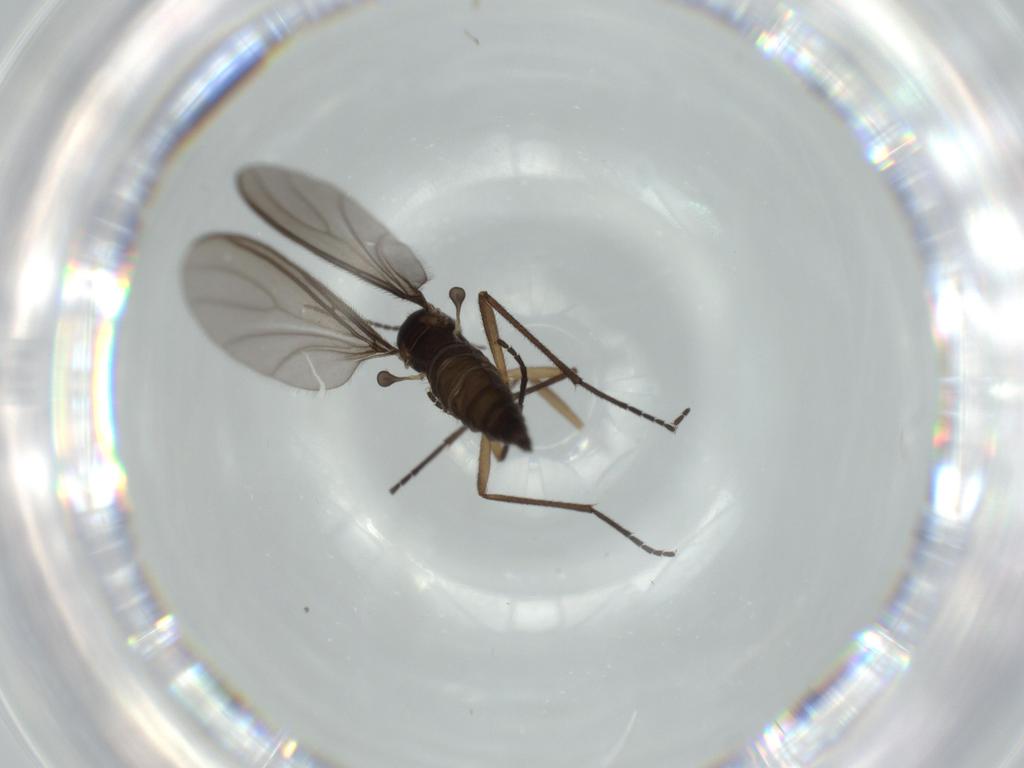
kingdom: Animalia
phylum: Arthropoda
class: Insecta
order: Diptera
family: Sciaridae
